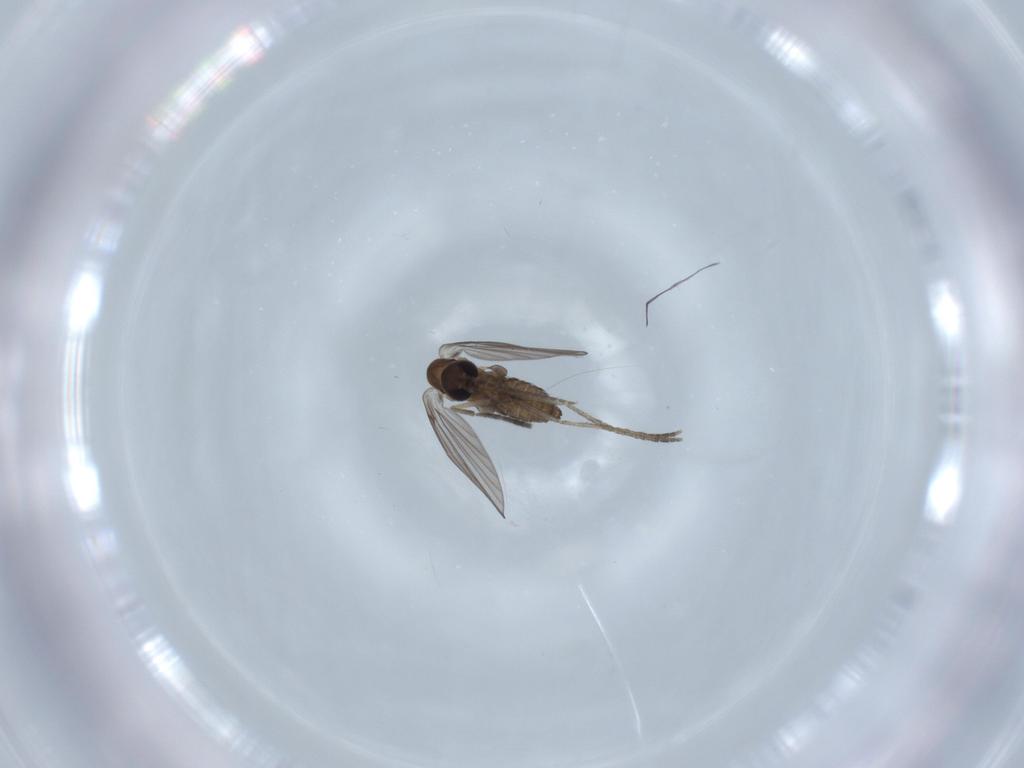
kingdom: Animalia
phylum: Arthropoda
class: Insecta
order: Diptera
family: Psychodidae
